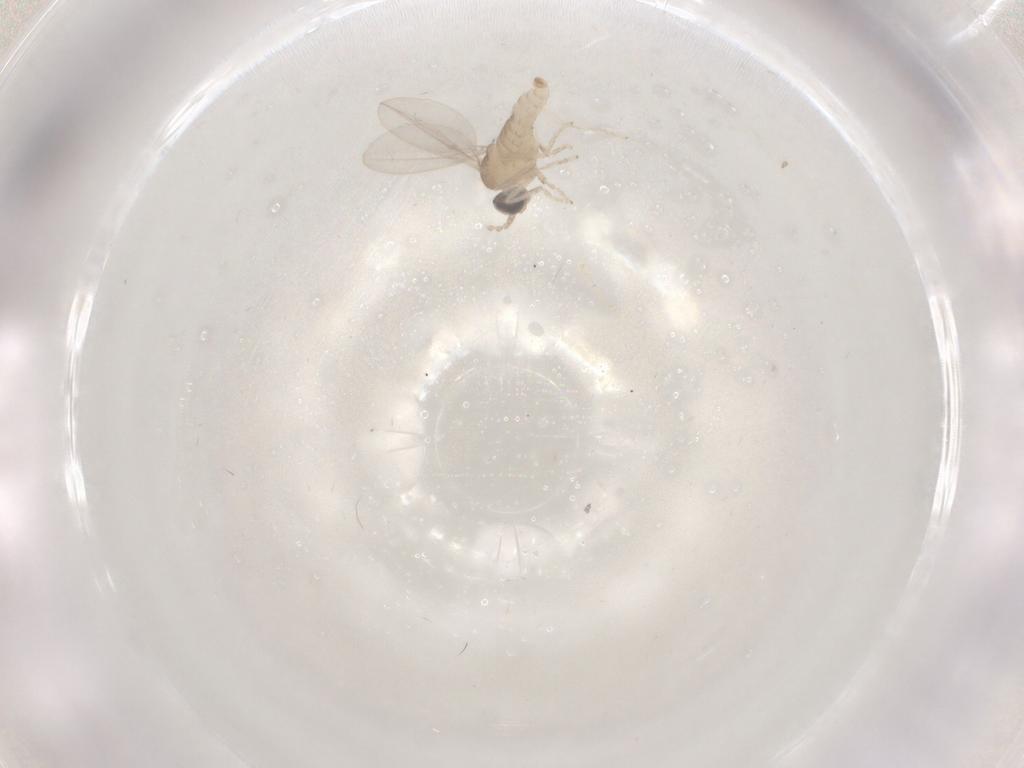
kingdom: Animalia
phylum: Arthropoda
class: Insecta
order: Diptera
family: Cecidomyiidae
